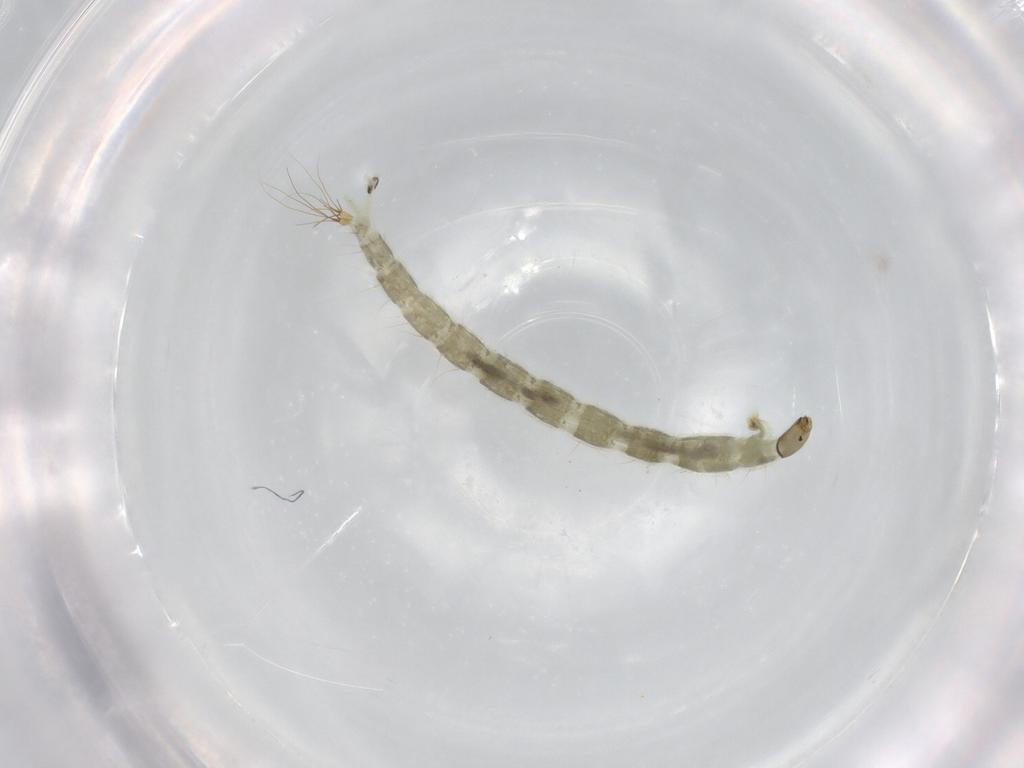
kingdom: Animalia
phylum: Arthropoda
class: Insecta
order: Diptera
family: Chironomidae
